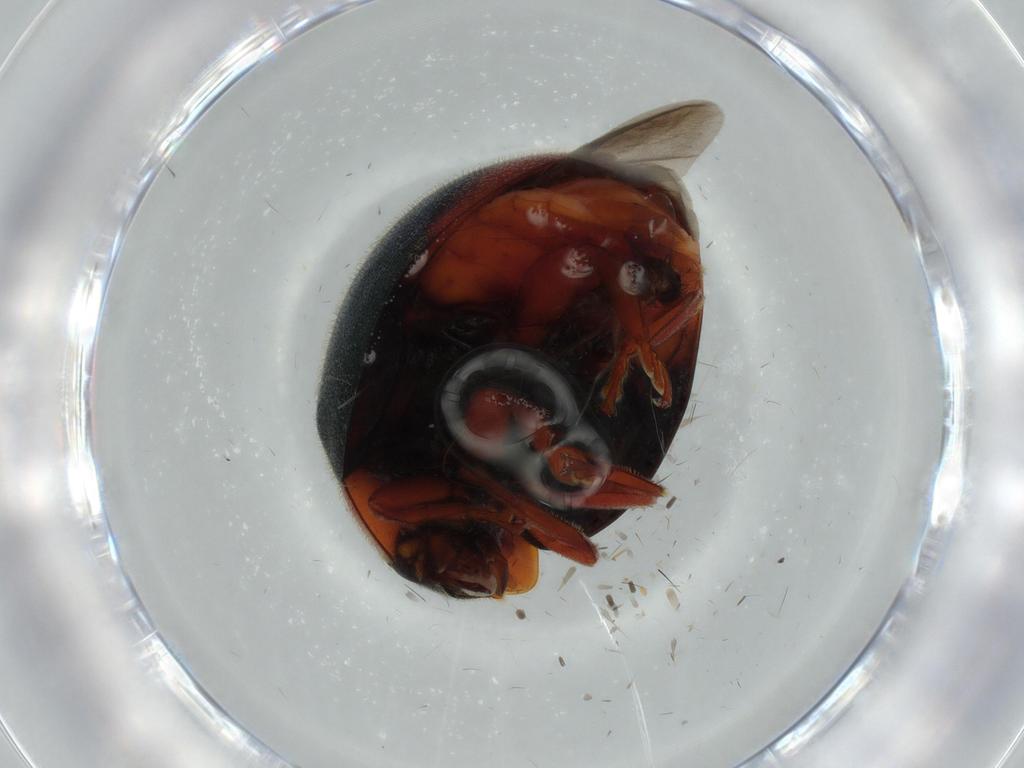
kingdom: Animalia
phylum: Arthropoda
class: Insecta
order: Coleoptera
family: Coccinellidae
